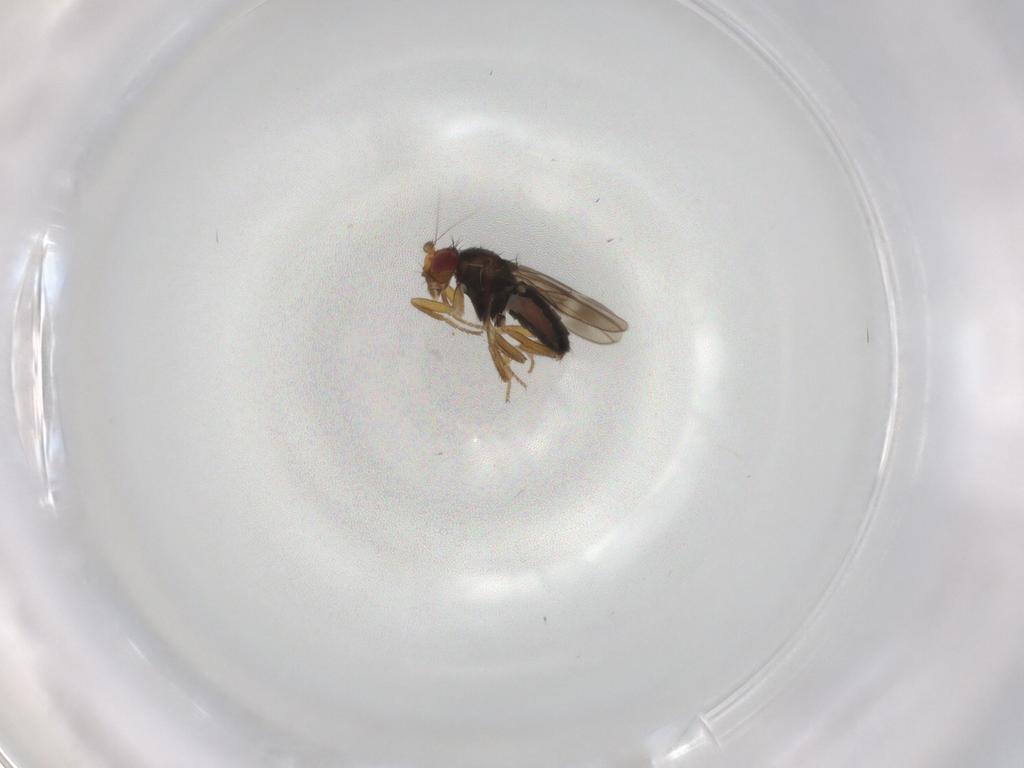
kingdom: Animalia
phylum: Arthropoda
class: Insecta
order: Diptera
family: Sphaeroceridae
